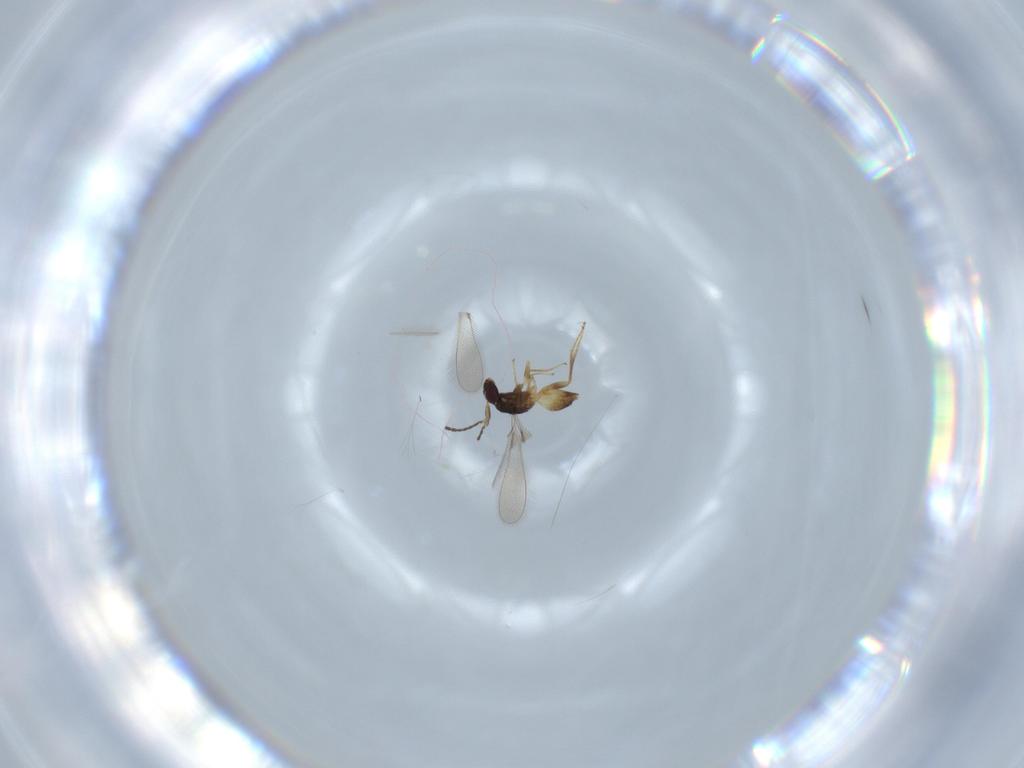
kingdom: Animalia
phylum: Arthropoda
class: Insecta
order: Hymenoptera
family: Mymaridae
